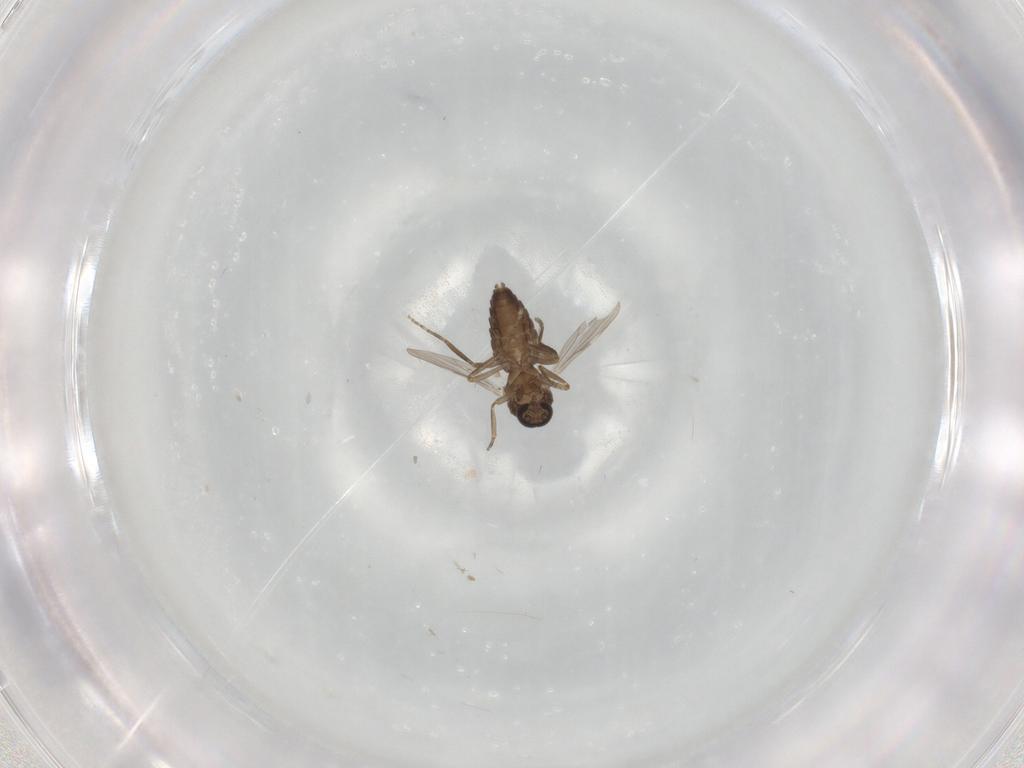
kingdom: Animalia
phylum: Arthropoda
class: Insecta
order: Diptera
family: Ceratopogonidae
